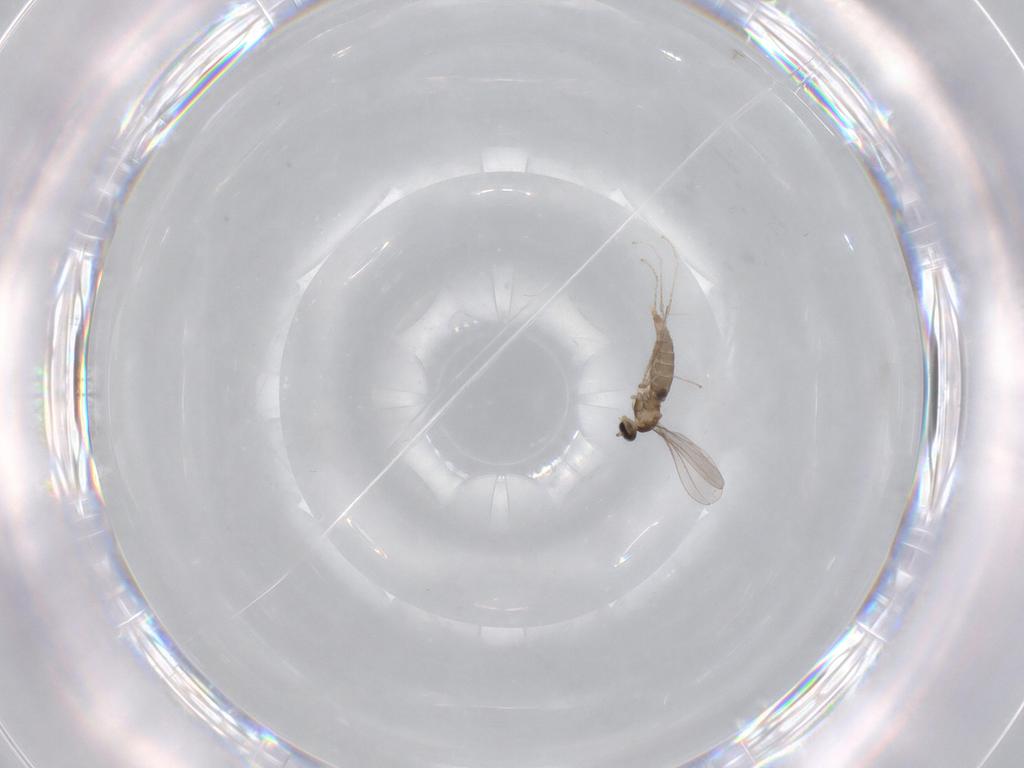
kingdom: Animalia
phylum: Arthropoda
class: Insecta
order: Diptera
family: Cecidomyiidae
